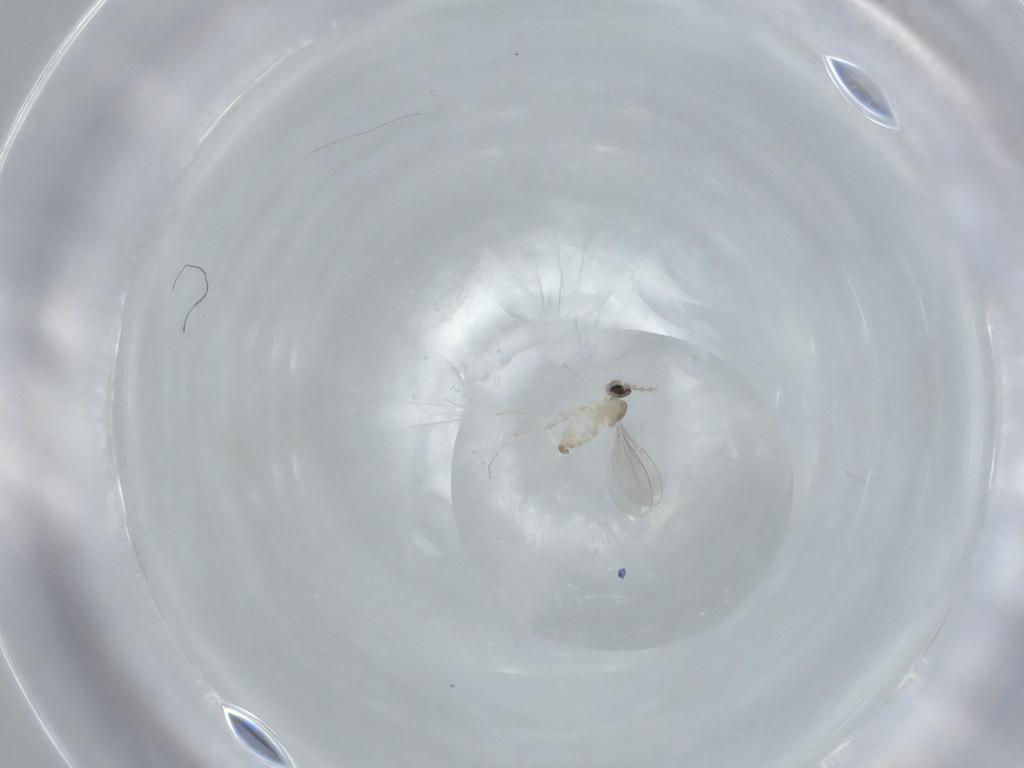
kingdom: Animalia
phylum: Arthropoda
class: Insecta
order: Diptera
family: Cecidomyiidae
